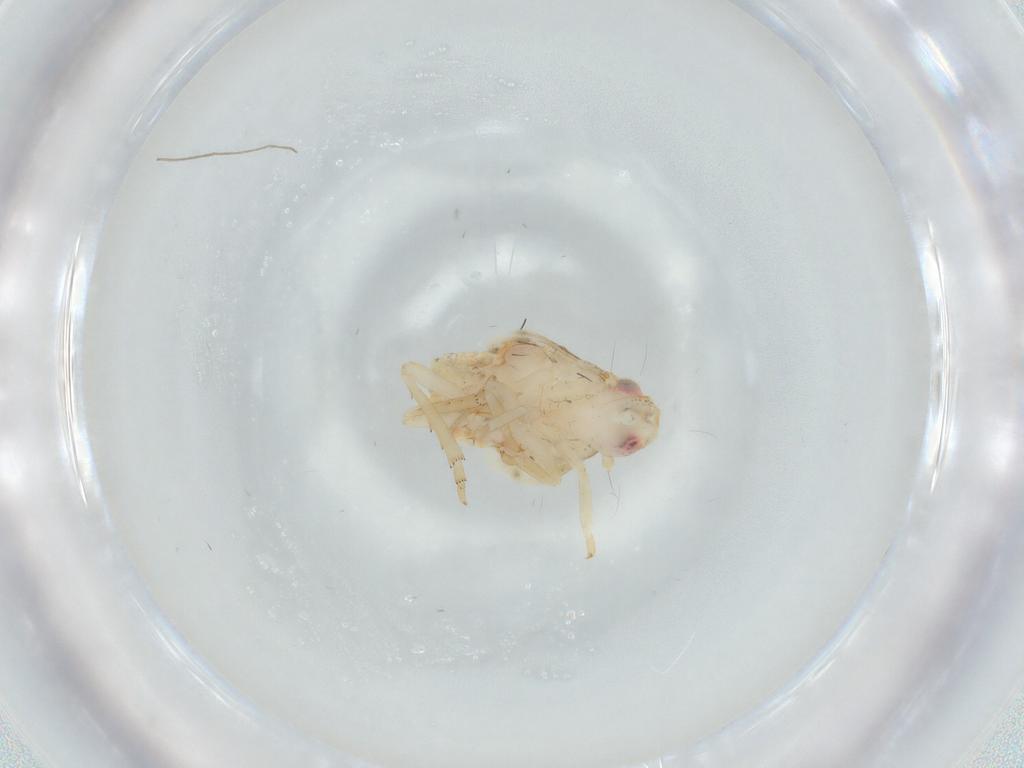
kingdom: Animalia
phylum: Arthropoda
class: Insecta
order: Hemiptera
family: Flatidae
